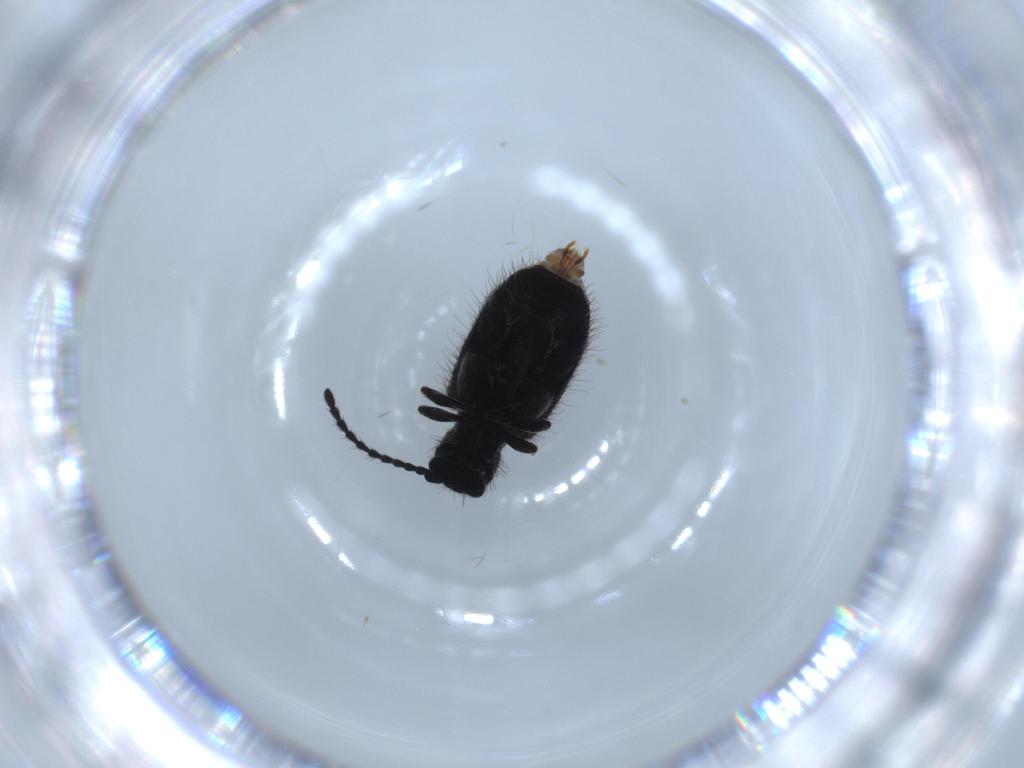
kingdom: Animalia
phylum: Arthropoda
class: Insecta
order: Coleoptera
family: Ptinidae
